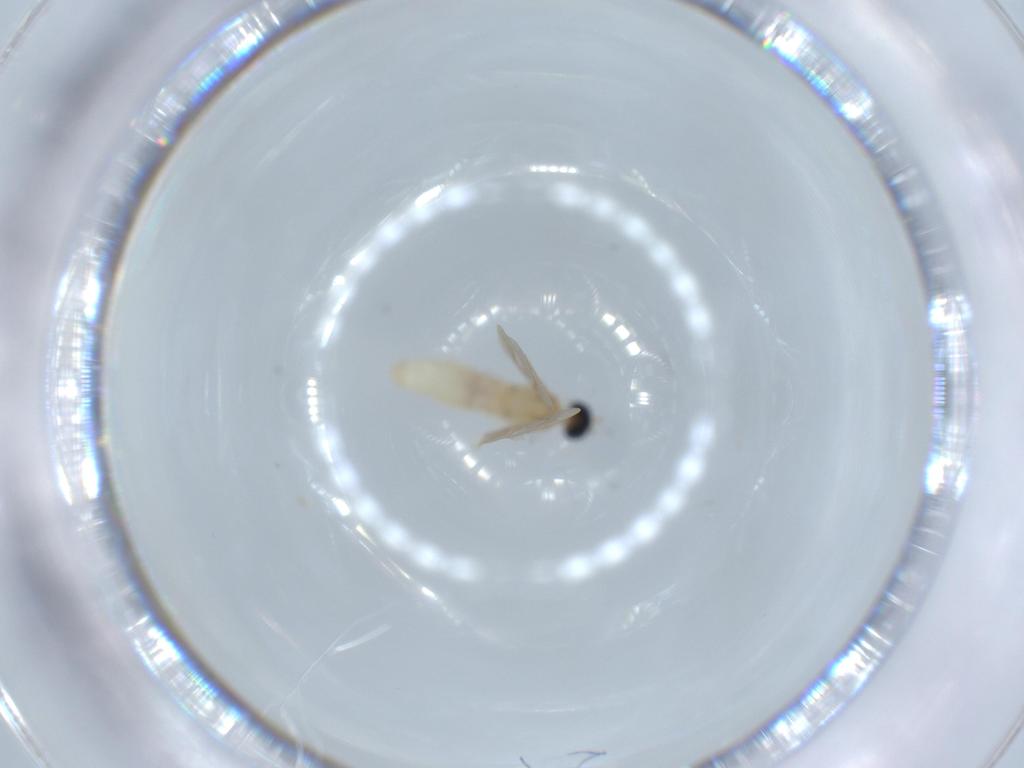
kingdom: Animalia
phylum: Arthropoda
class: Insecta
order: Diptera
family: Cecidomyiidae
